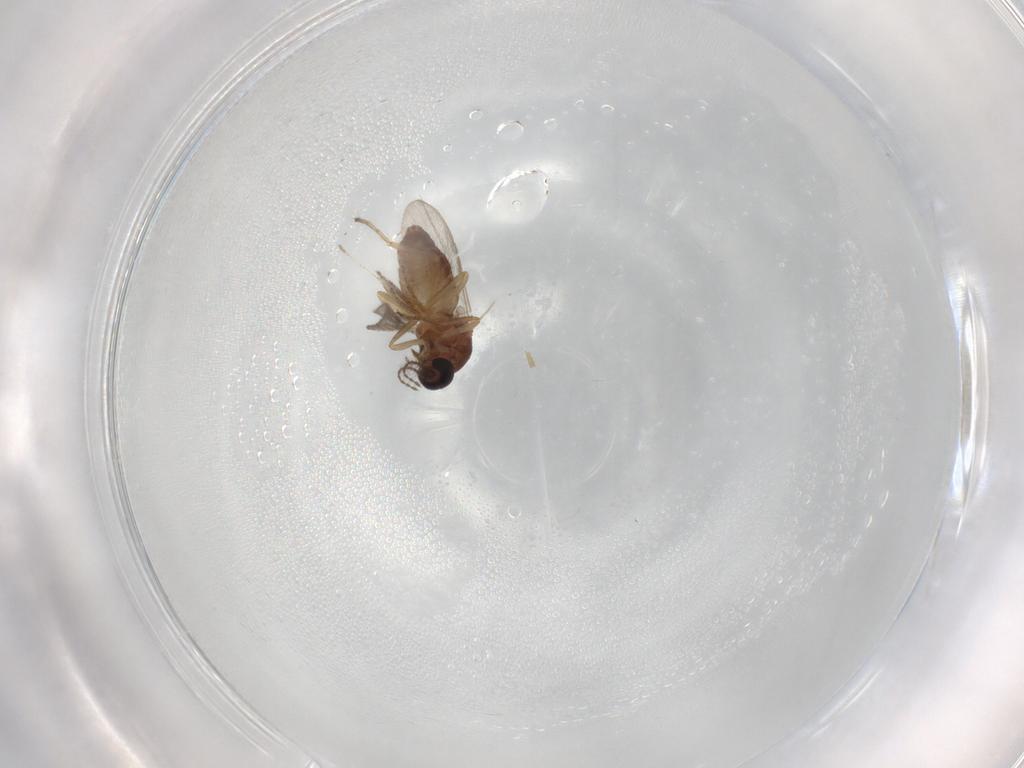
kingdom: Animalia
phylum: Arthropoda
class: Insecta
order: Diptera
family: Ceratopogonidae
